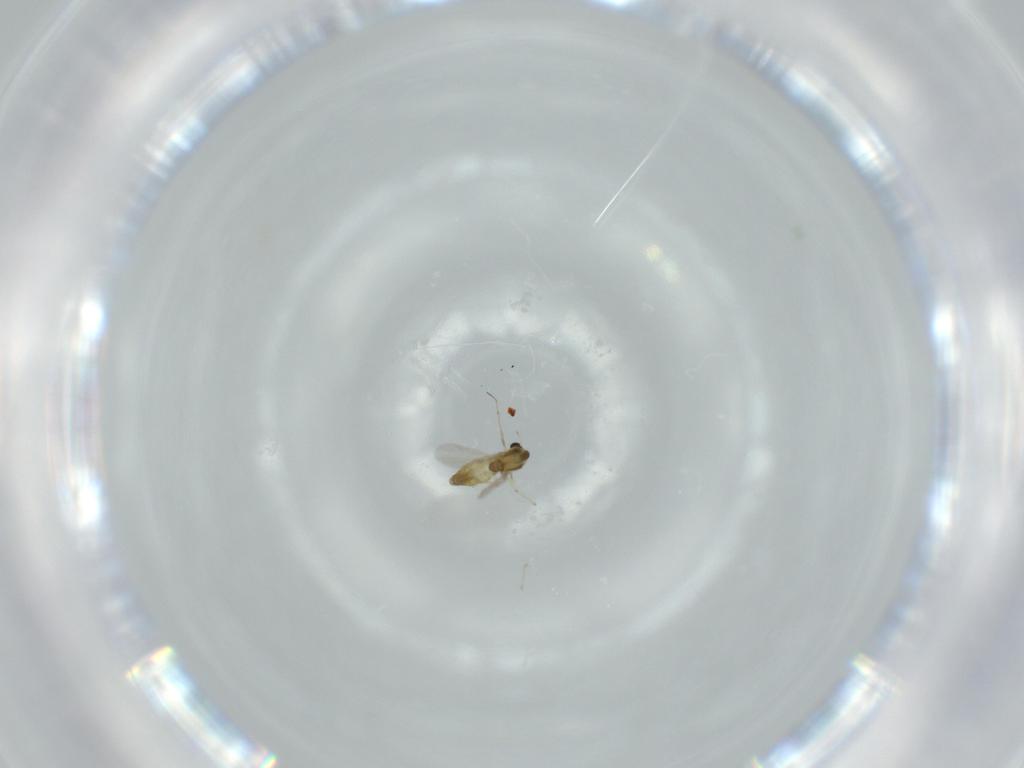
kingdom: Animalia
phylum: Arthropoda
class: Insecta
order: Diptera
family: Chironomidae
